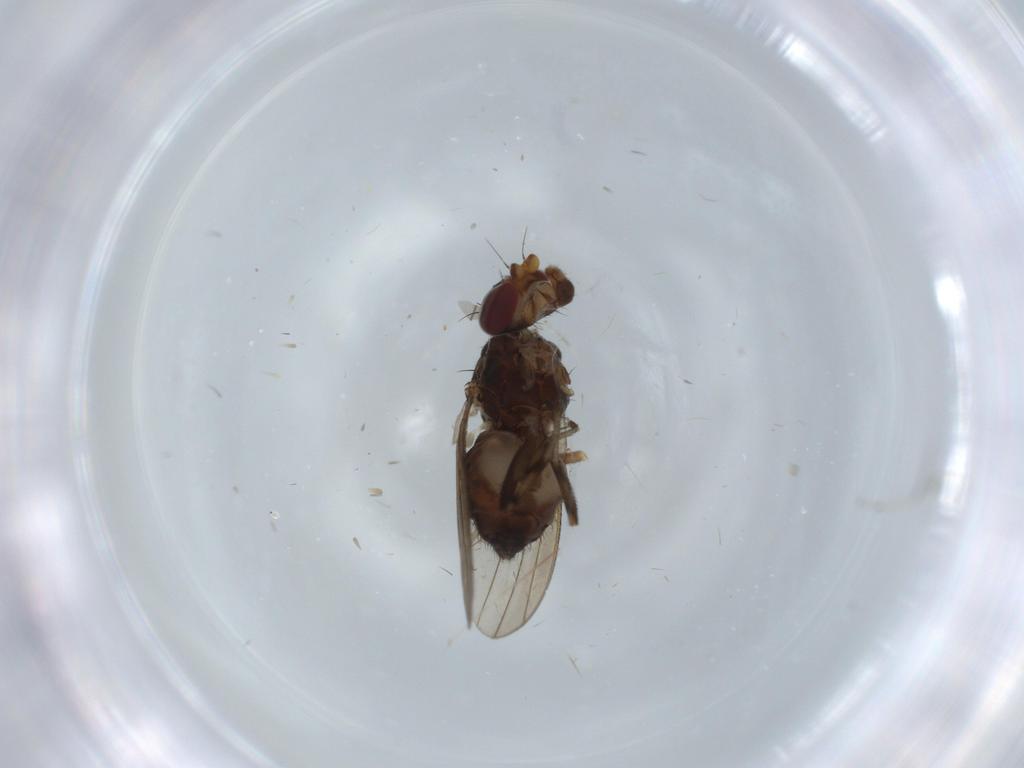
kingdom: Animalia
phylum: Arthropoda
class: Insecta
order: Diptera
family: Heleomyzidae
